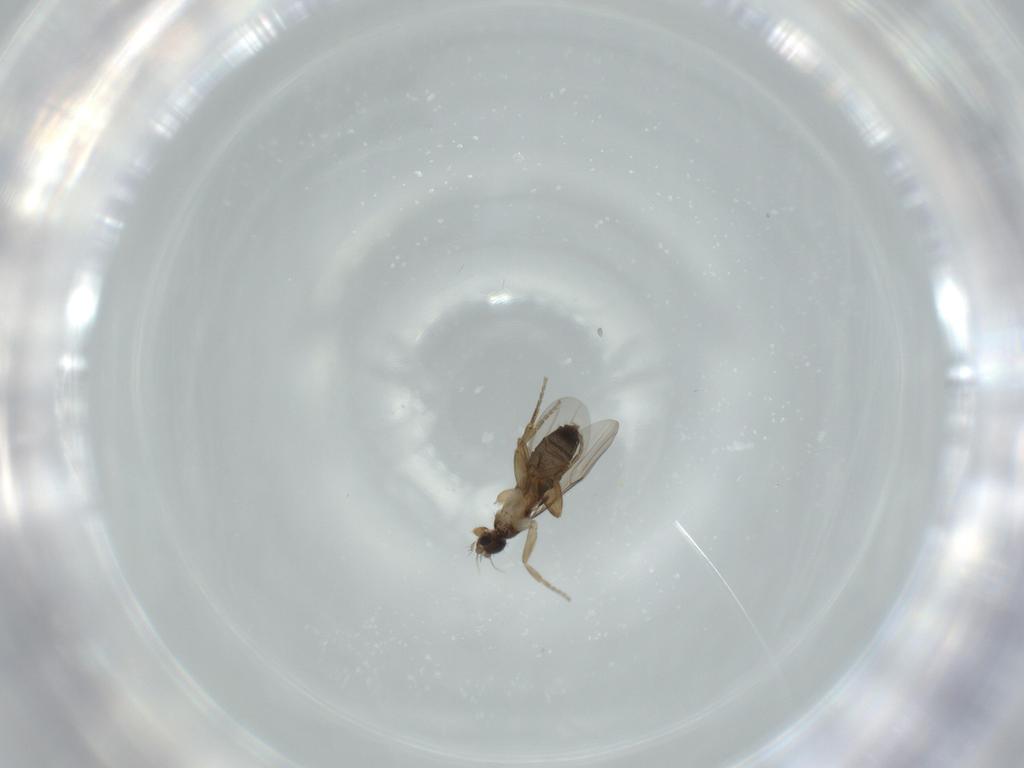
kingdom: Animalia
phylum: Arthropoda
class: Insecta
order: Diptera
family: Phoridae
